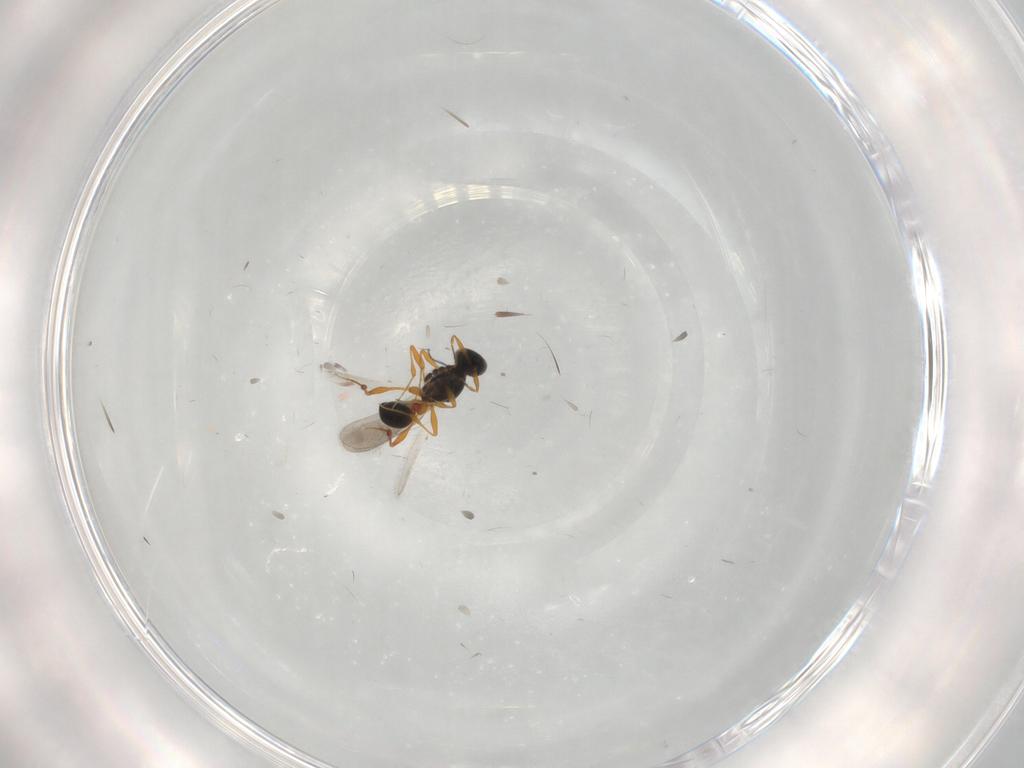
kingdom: Animalia
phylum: Arthropoda
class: Insecta
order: Hymenoptera
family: Platygastridae
